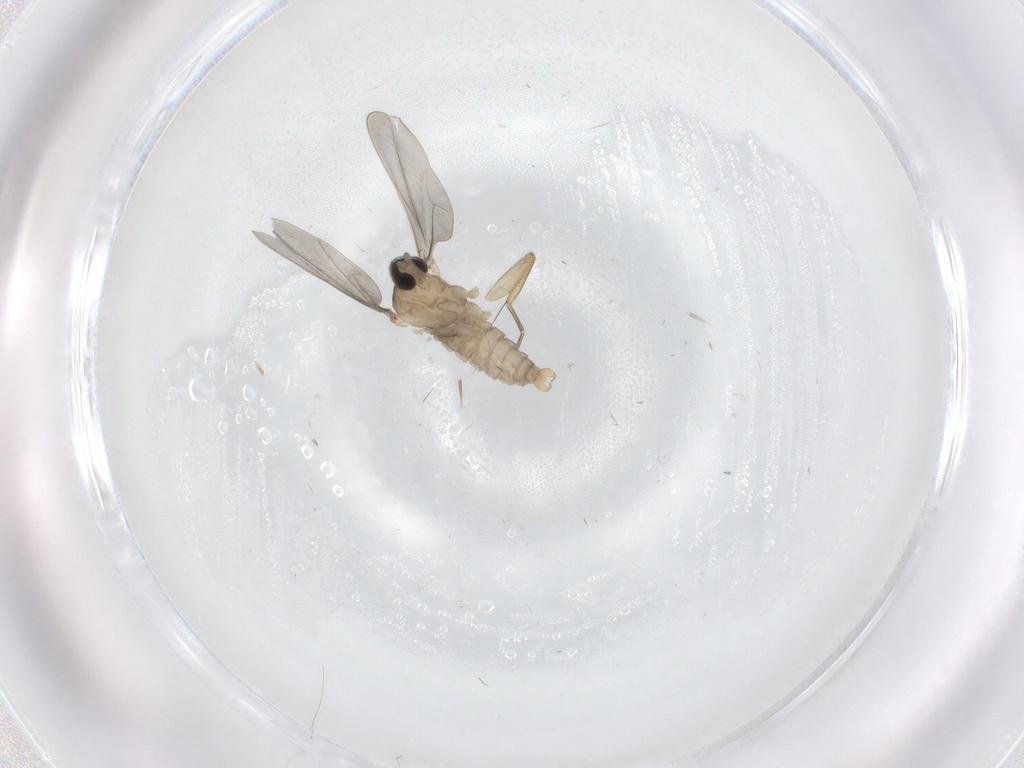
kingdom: Animalia
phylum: Arthropoda
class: Insecta
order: Diptera
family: Cecidomyiidae
